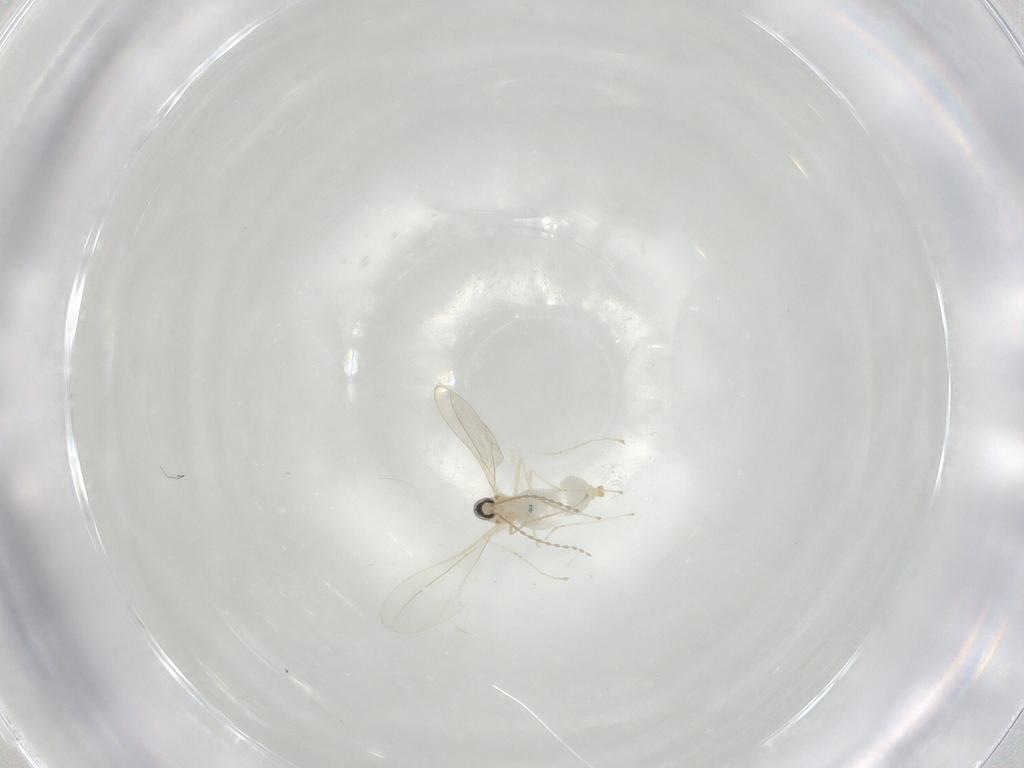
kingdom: Animalia
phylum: Arthropoda
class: Insecta
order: Diptera
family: Cecidomyiidae
